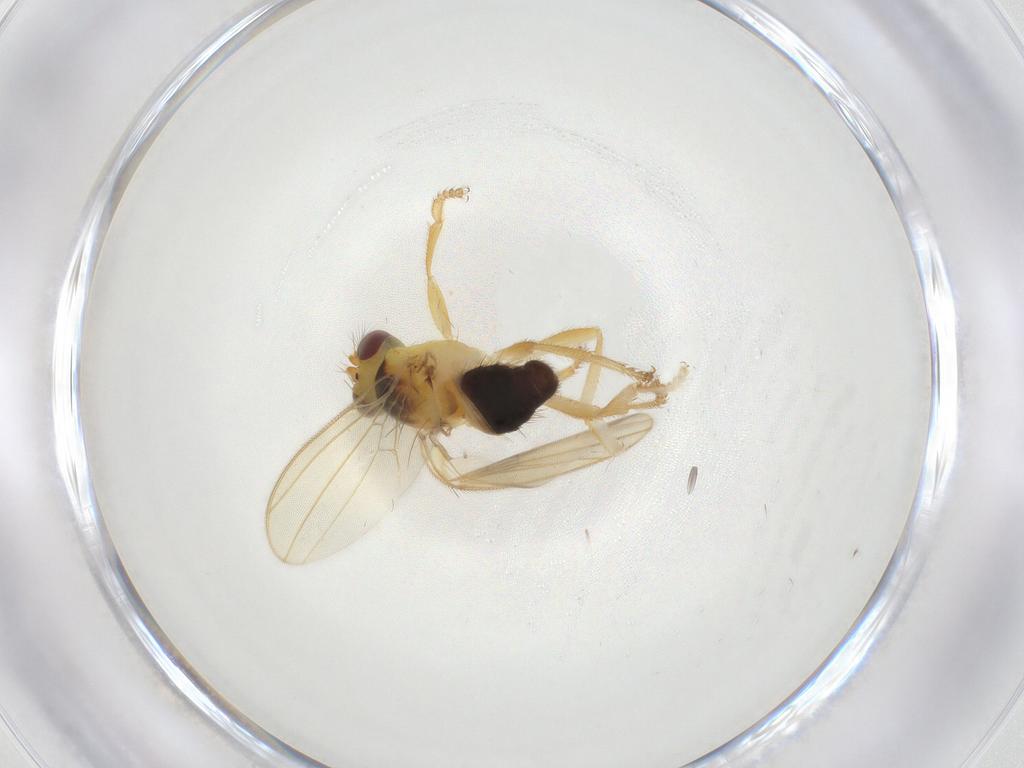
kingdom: Animalia
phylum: Arthropoda
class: Insecta
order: Diptera
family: Periscelididae
